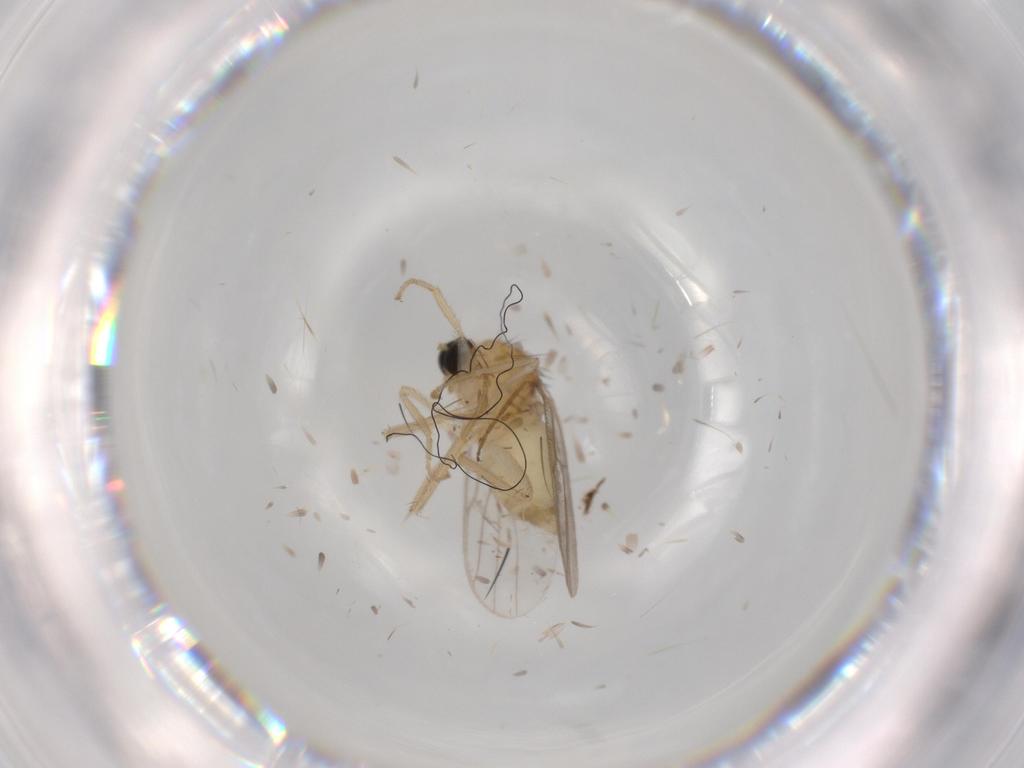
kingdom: Animalia
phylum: Arthropoda
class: Insecta
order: Diptera
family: Hybotidae
